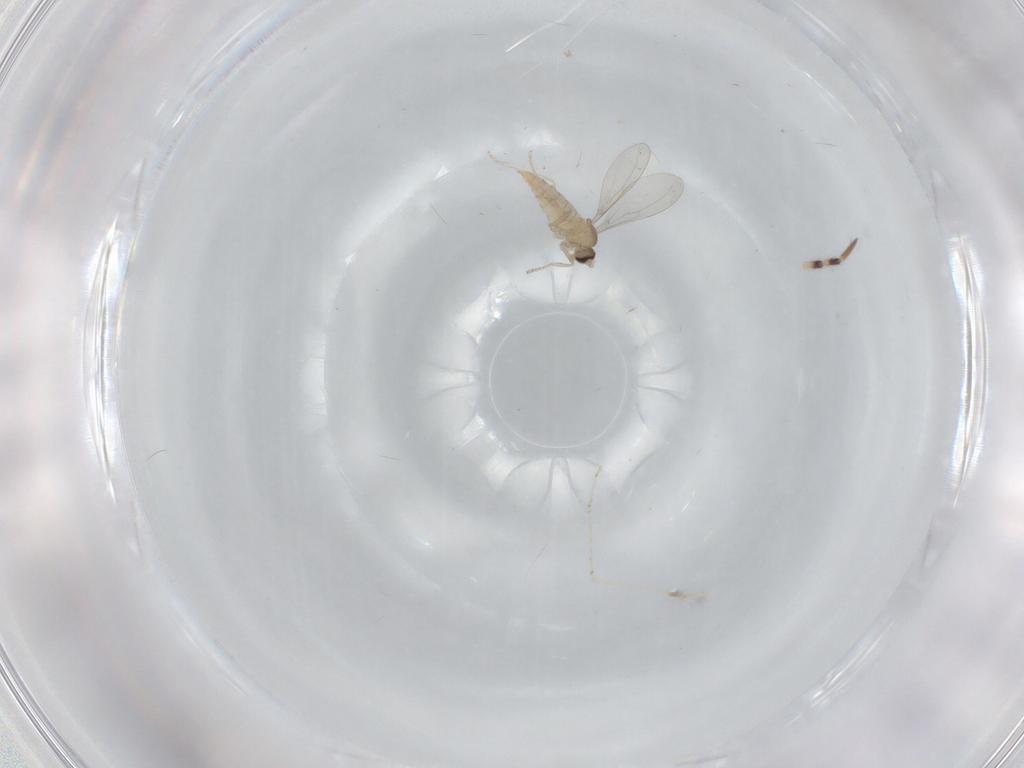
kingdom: Animalia
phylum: Arthropoda
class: Insecta
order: Diptera
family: Cecidomyiidae
